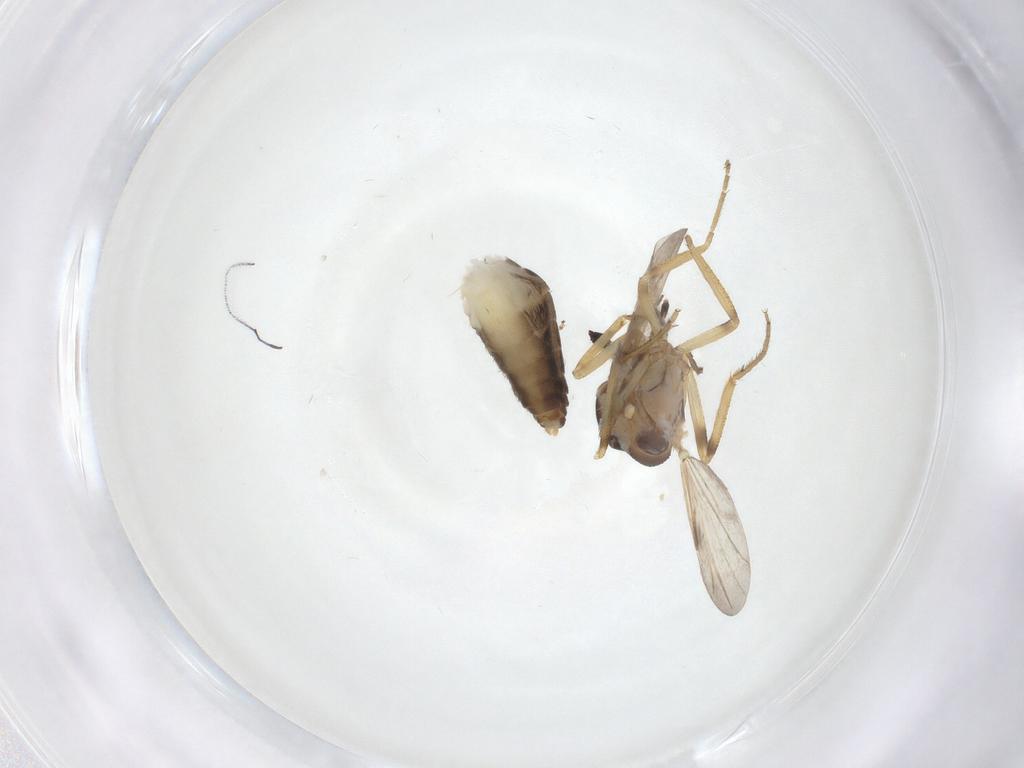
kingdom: Animalia
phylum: Arthropoda
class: Insecta
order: Diptera
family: Ceratopogonidae
